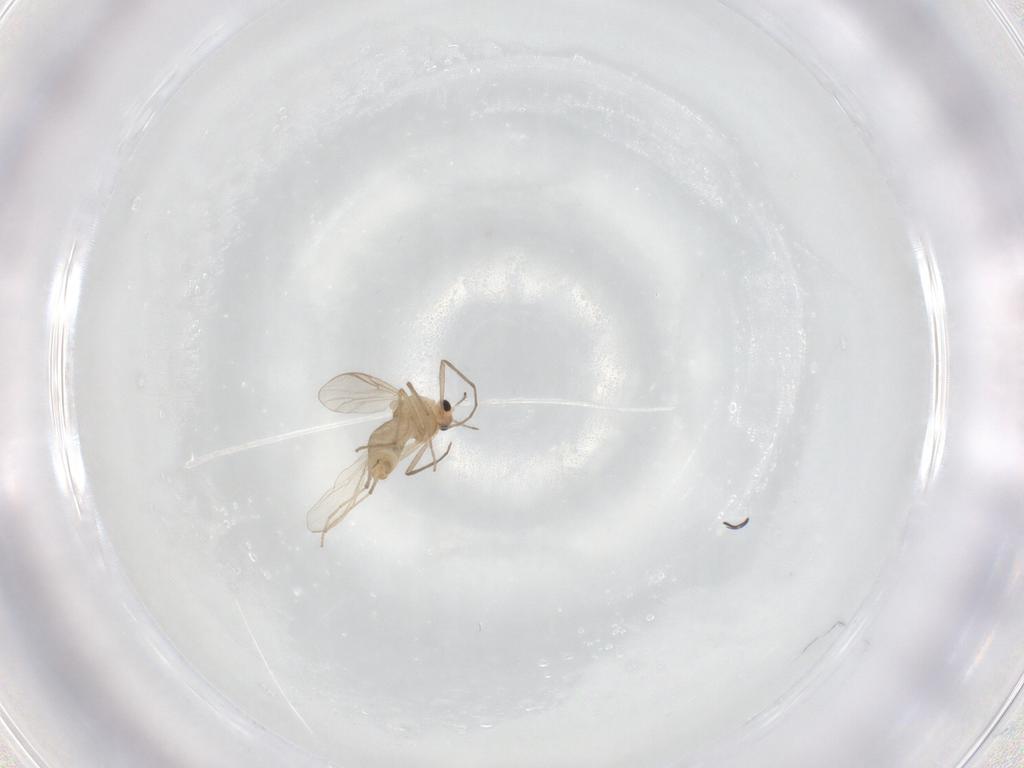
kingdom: Animalia
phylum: Arthropoda
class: Insecta
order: Diptera
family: Chironomidae
